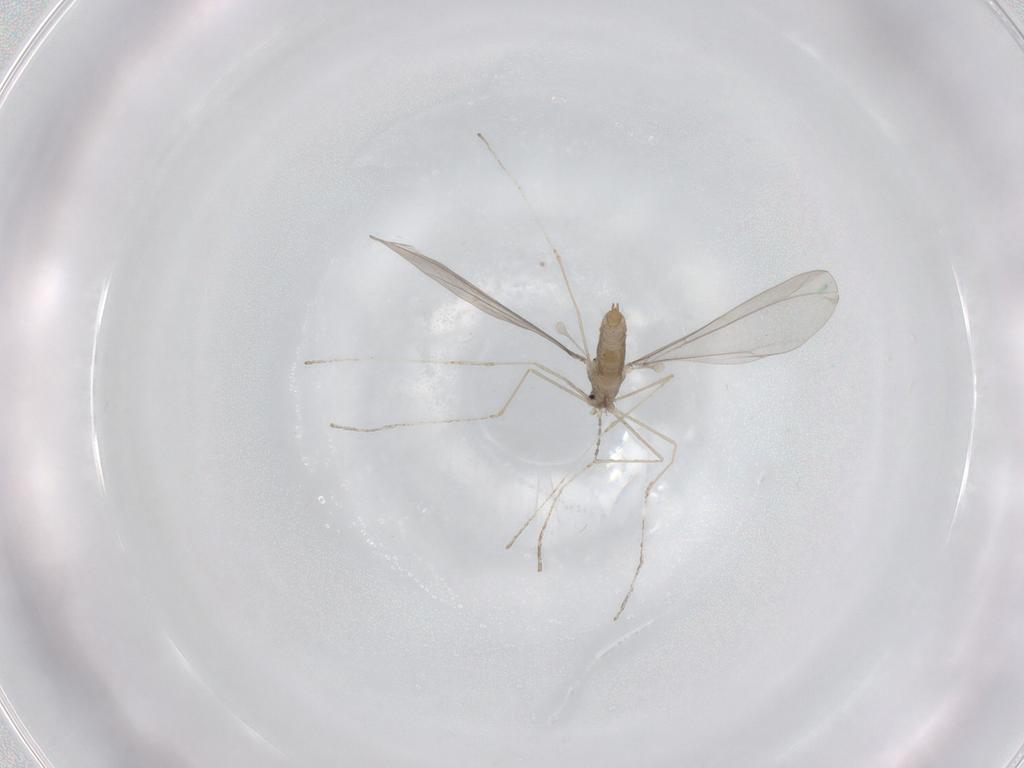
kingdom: Animalia
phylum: Arthropoda
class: Insecta
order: Diptera
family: Cecidomyiidae
